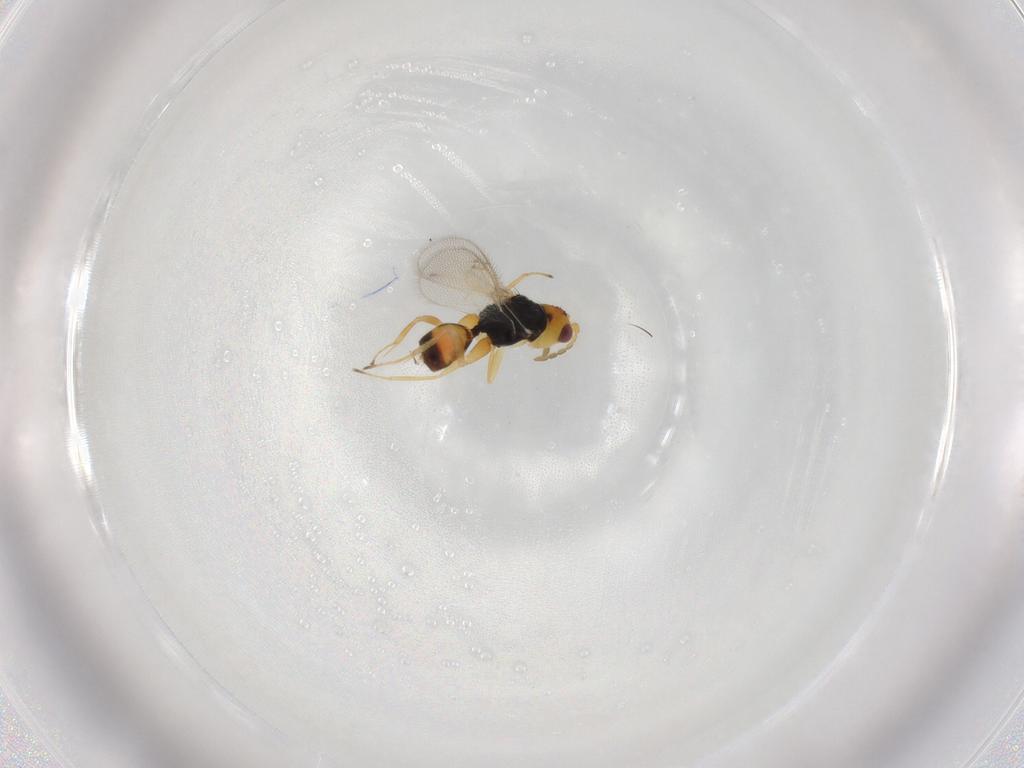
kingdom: Animalia
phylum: Arthropoda
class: Insecta
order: Hymenoptera
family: Eulophidae
